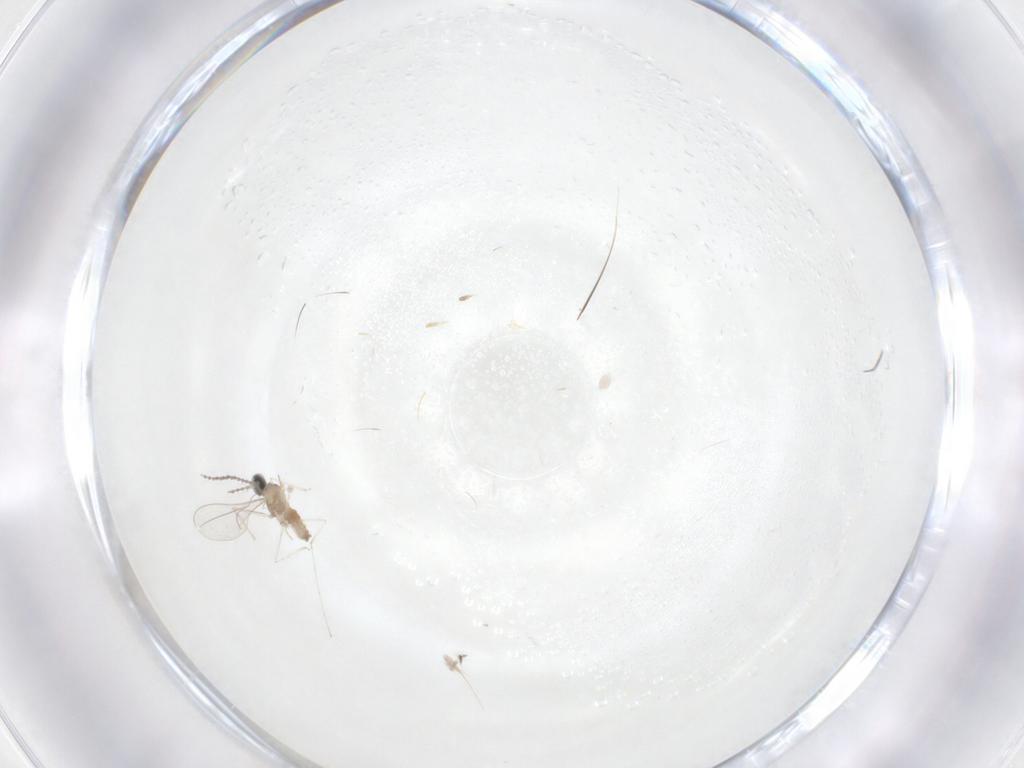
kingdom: Animalia
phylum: Arthropoda
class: Insecta
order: Diptera
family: Cecidomyiidae
